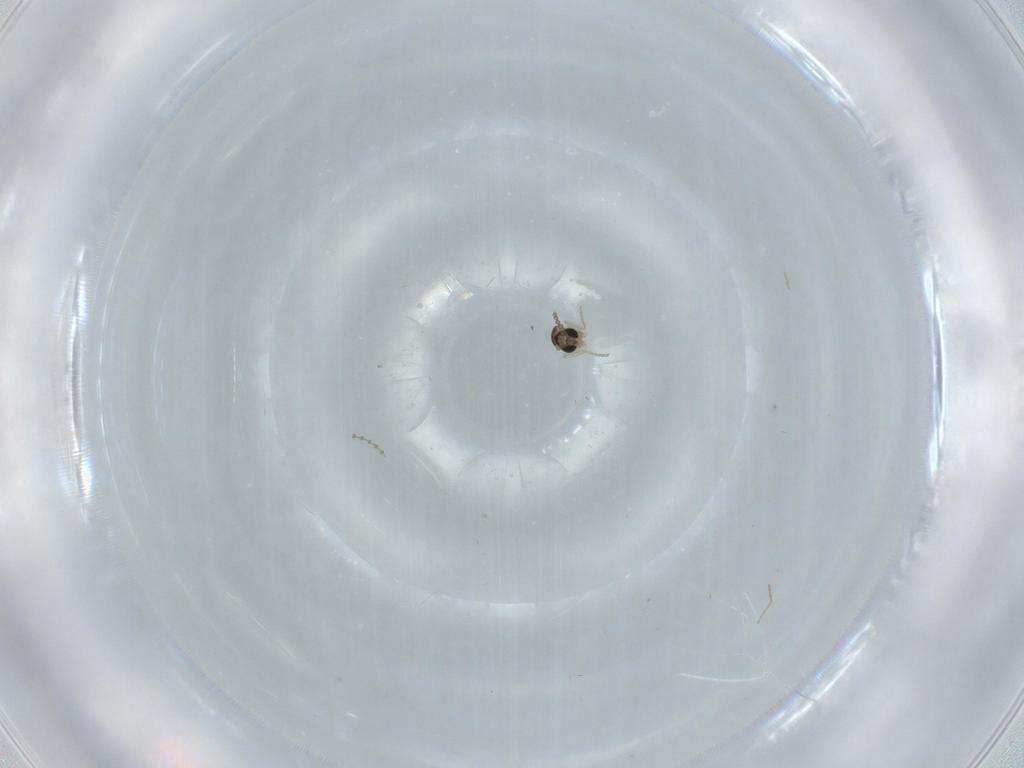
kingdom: Animalia
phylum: Arthropoda
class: Insecta
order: Diptera
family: Cecidomyiidae
